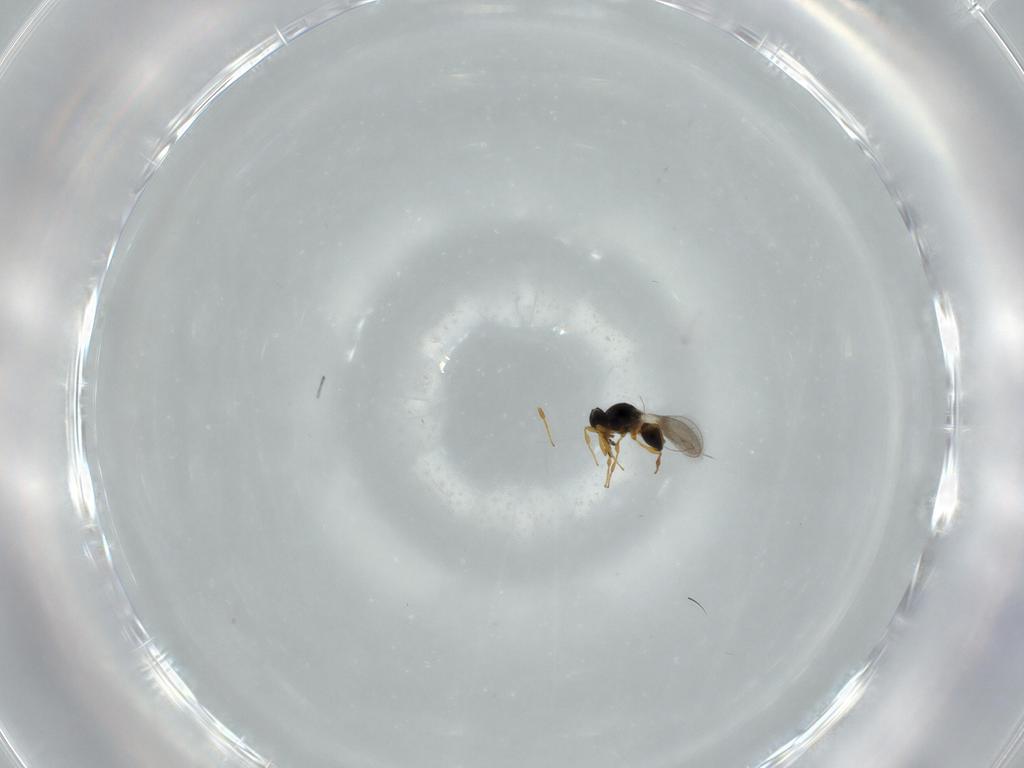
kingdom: Animalia
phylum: Arthropoda
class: Insecta
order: Hymenoptera
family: Platygastridae
